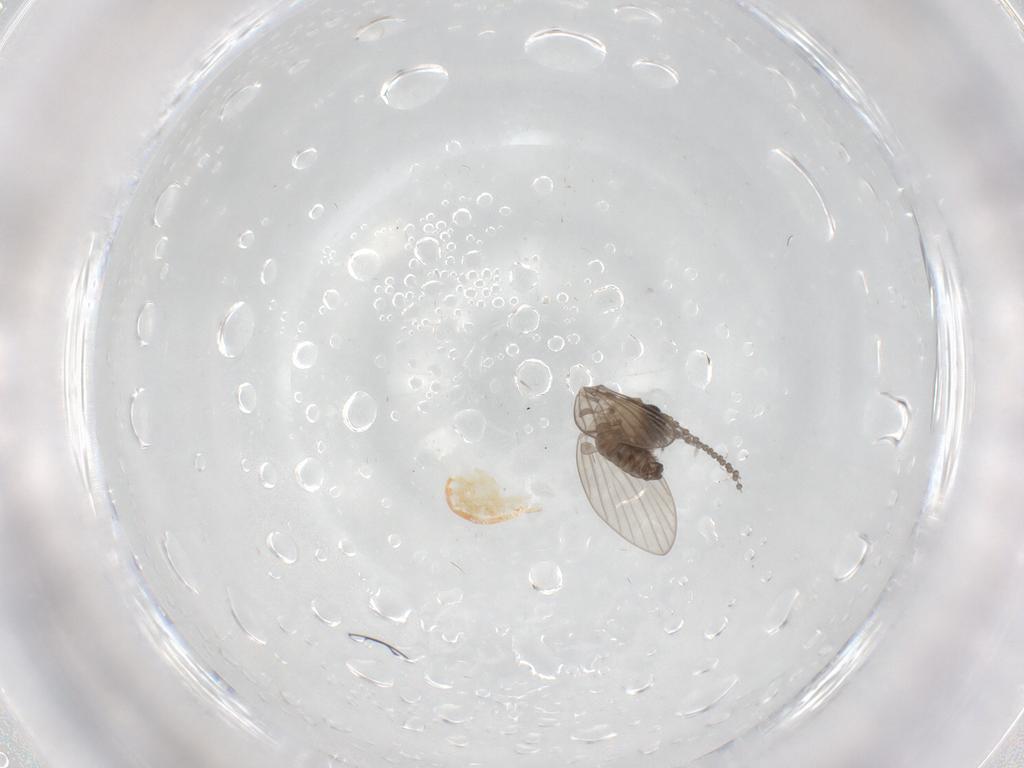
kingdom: Animalia
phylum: Arthropoda
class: Insecta
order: Diptera
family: Psychodidae
